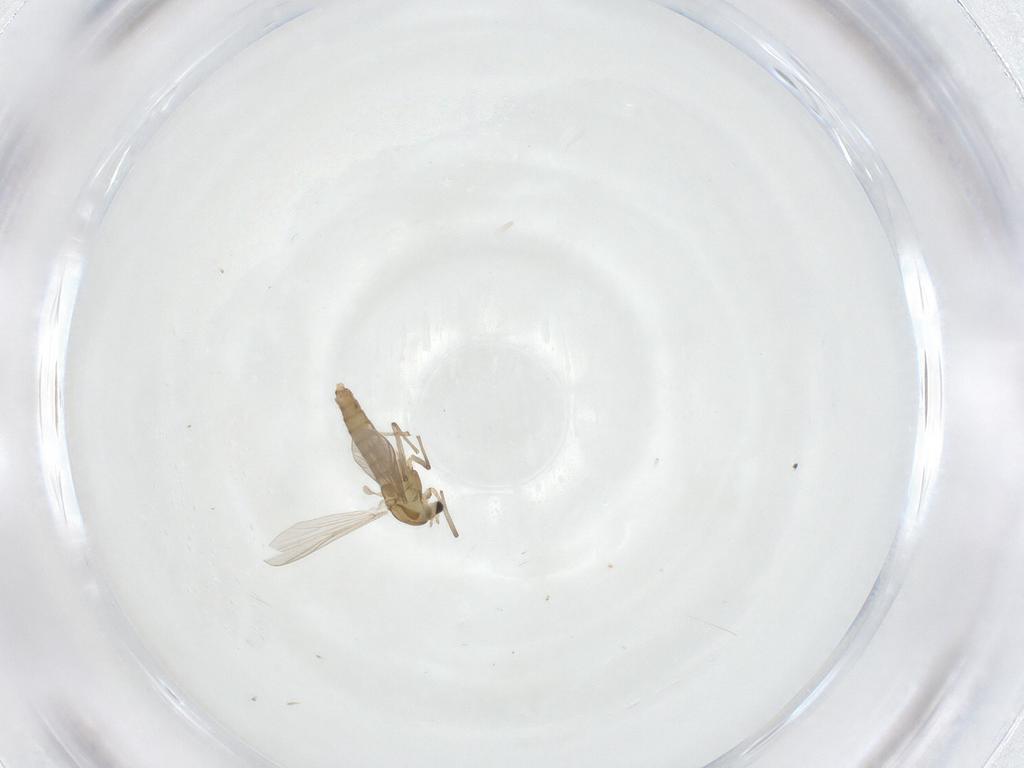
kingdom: Animalia
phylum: Arthropoda
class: Insecta
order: Diptera
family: Chironomidae
